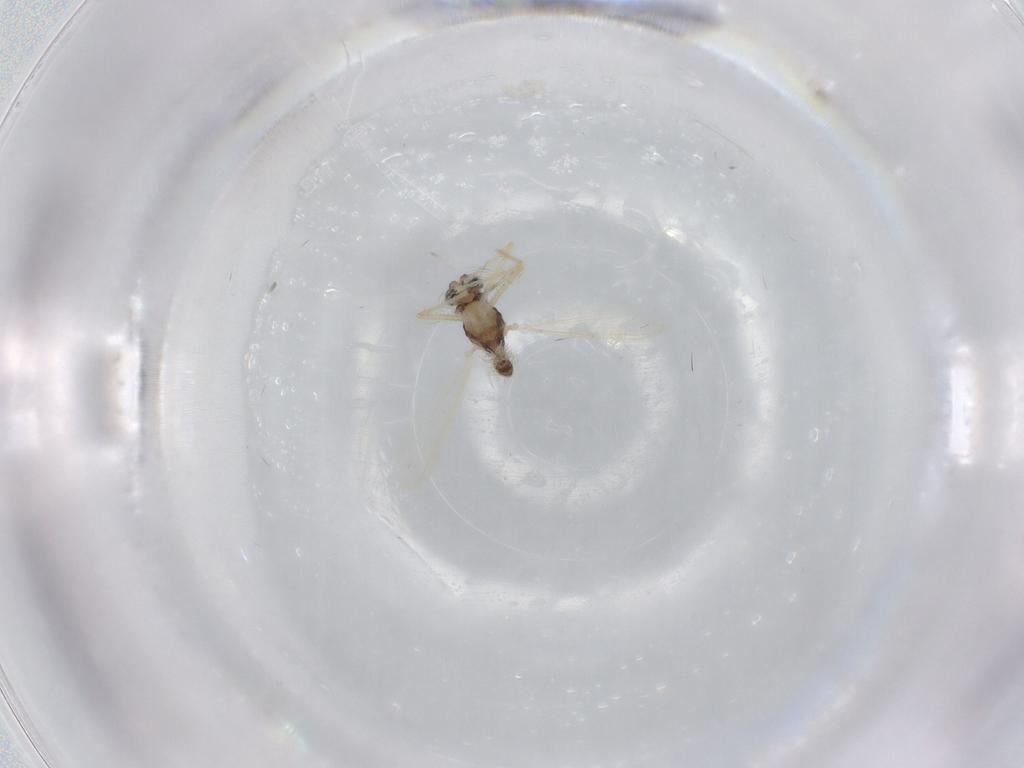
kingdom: Animalia
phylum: Arthropoda
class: Insecta
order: Diptera
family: Chironomidae
